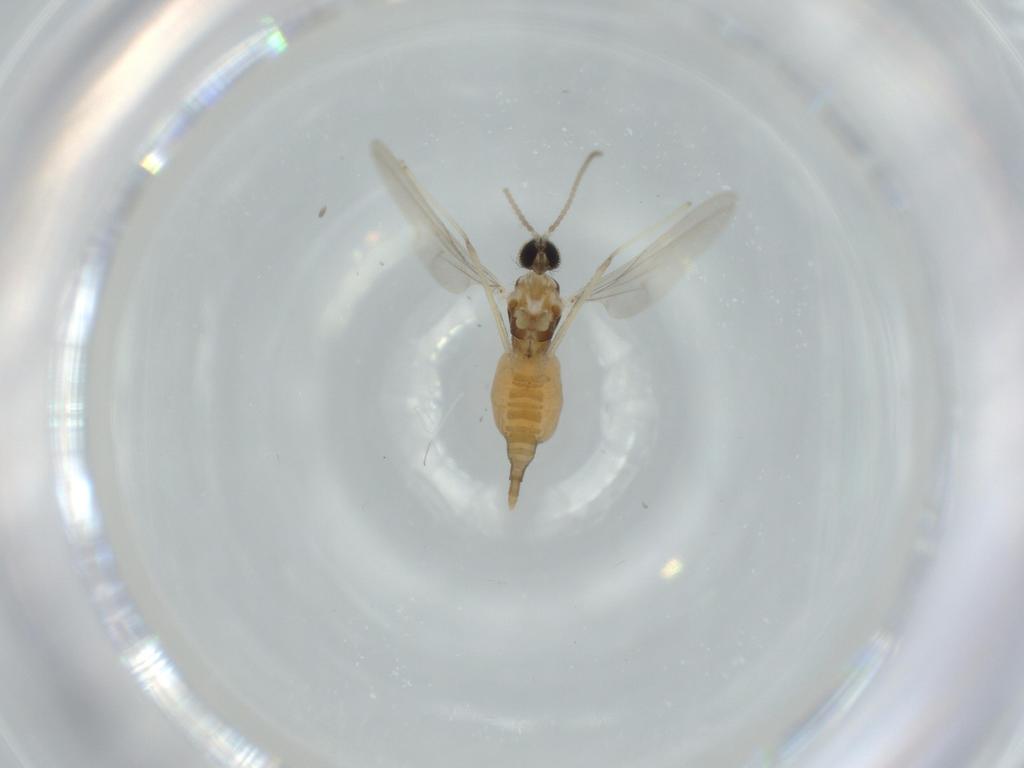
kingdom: Animalia
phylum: Arthropoda
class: Insecta
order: Diptera
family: Cecidomyiidae
